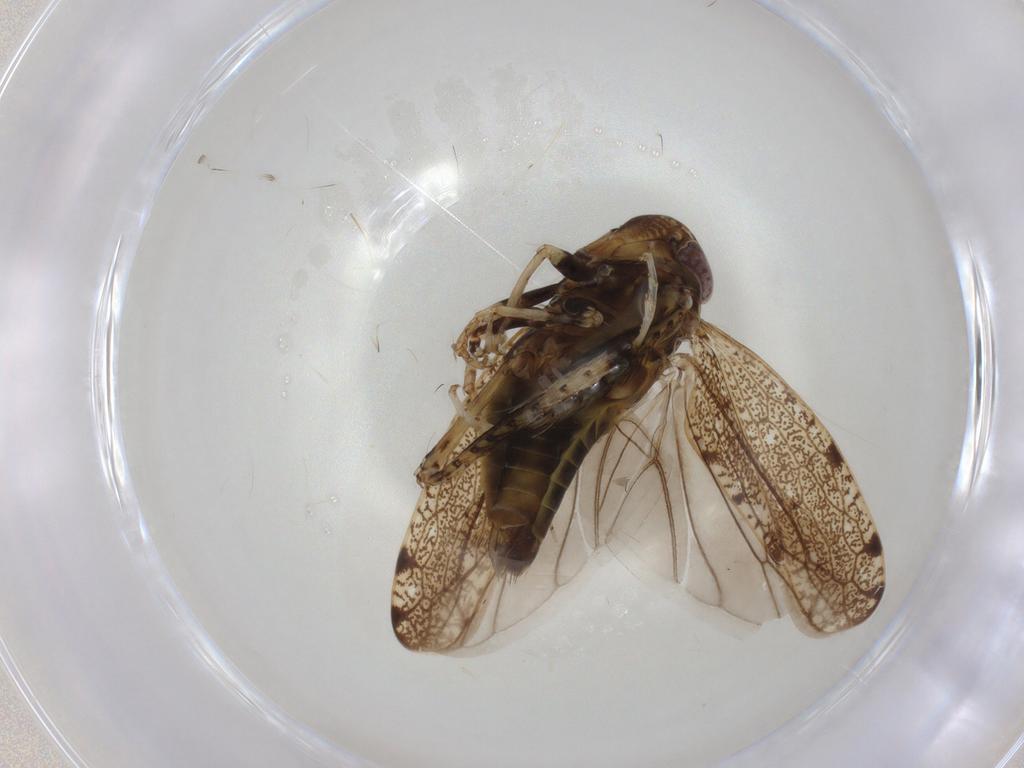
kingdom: Animalia
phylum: Arthropoda
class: Insecta
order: Hemiptera
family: Cicadellidae
